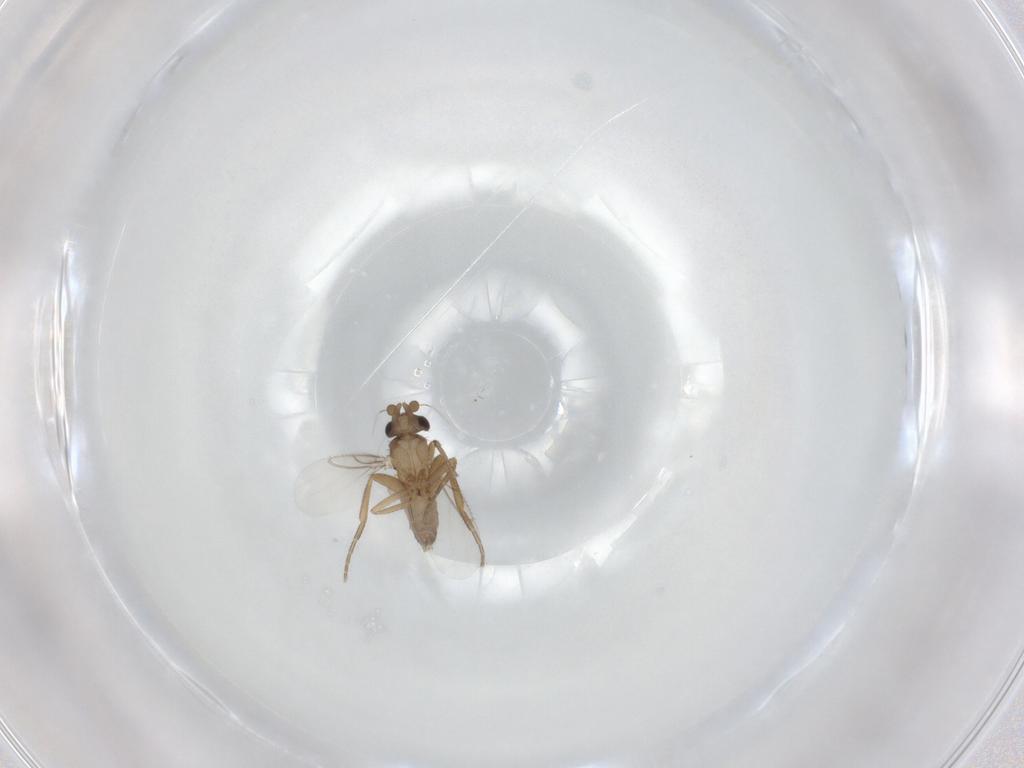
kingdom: Animalia
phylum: Arthropoda
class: Insecta
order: Diptera
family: Phoridae
